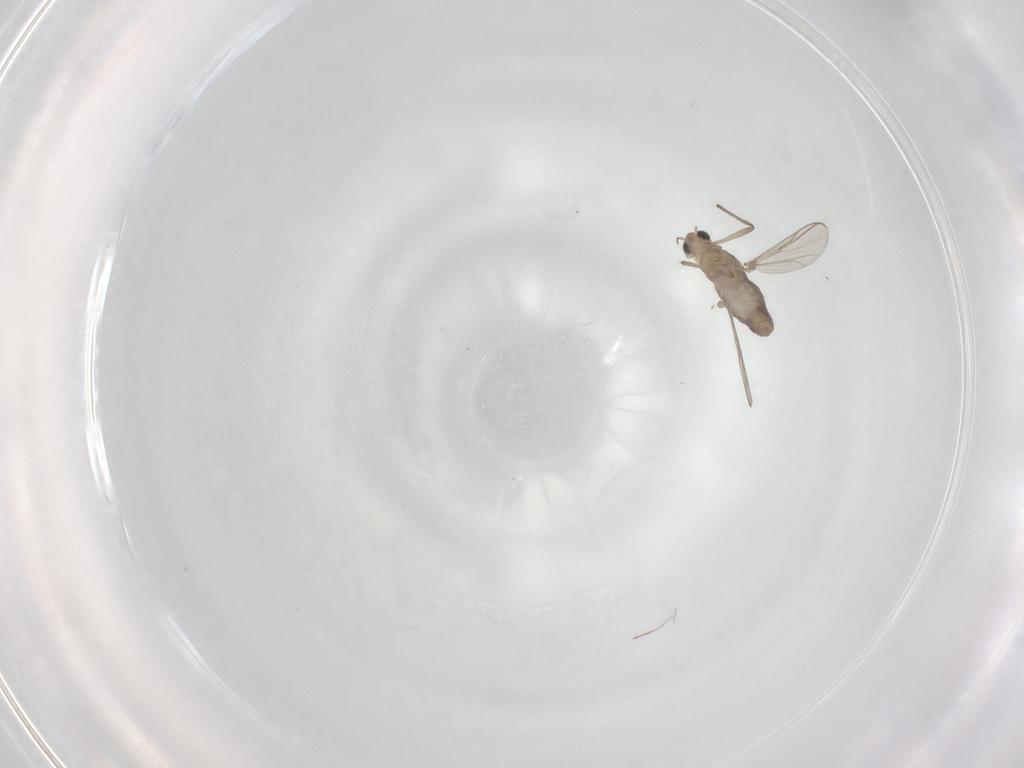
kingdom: Animalia
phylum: Arthropoda
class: Insecta
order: Diptera
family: Chironomidae
